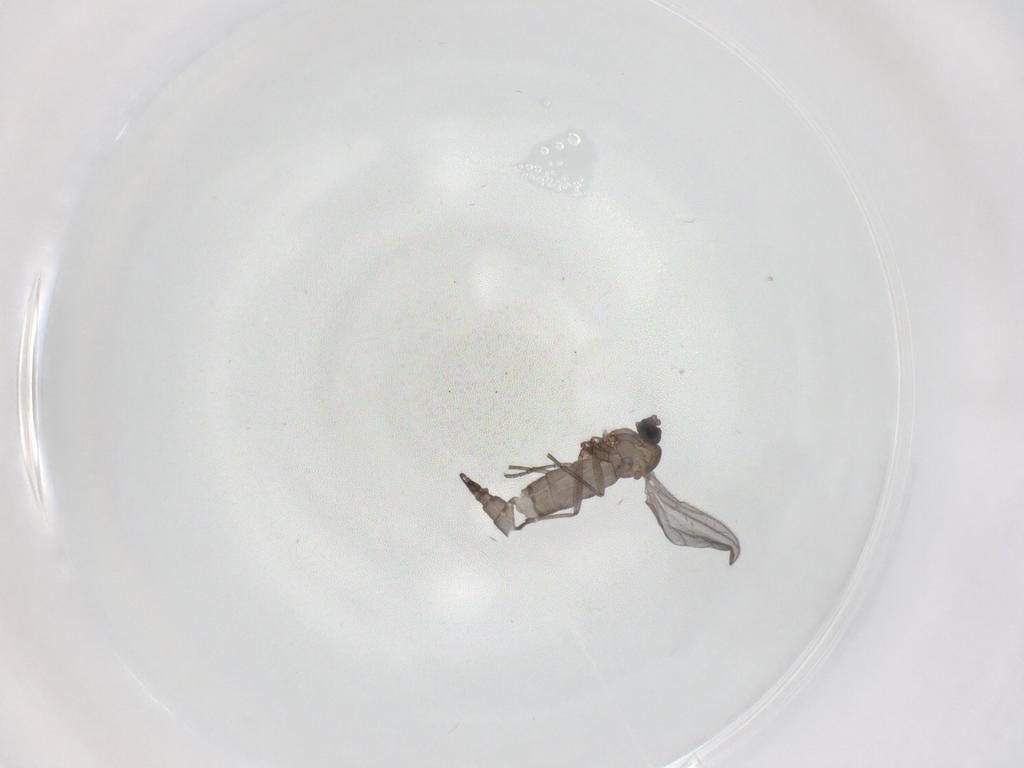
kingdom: Animalia
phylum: Arthropoda
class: Insecta
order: Diptera
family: Sciaridae
